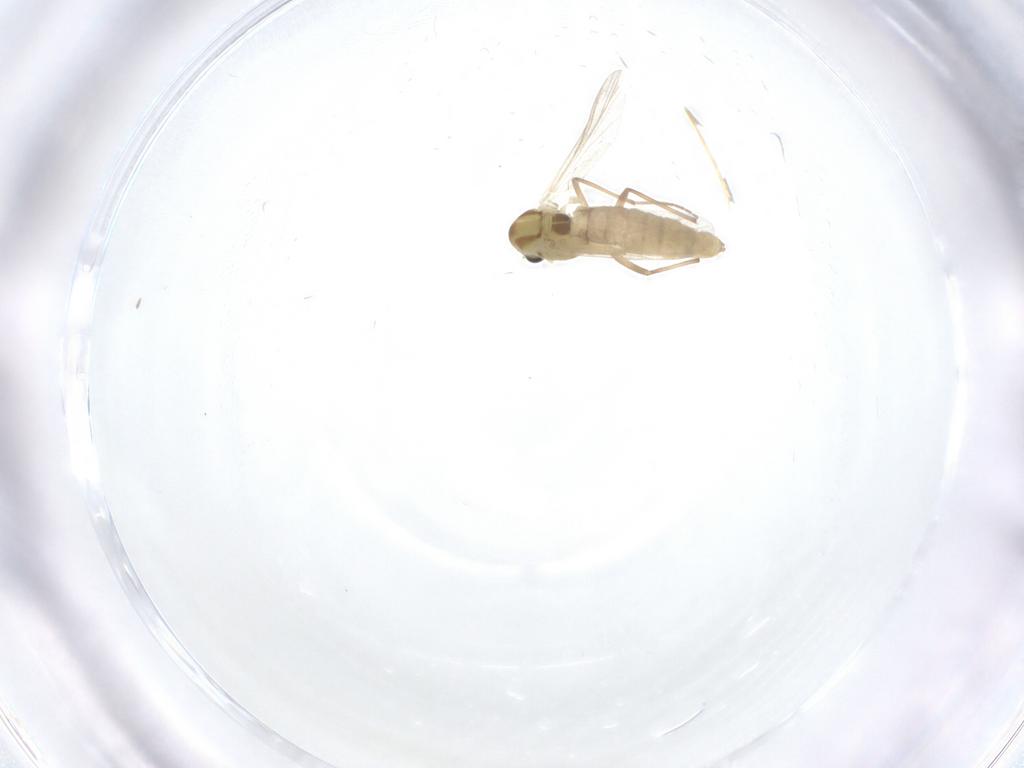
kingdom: Animalia
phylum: Arthropoda
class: Insecta
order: Diptera
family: Chironomidae
